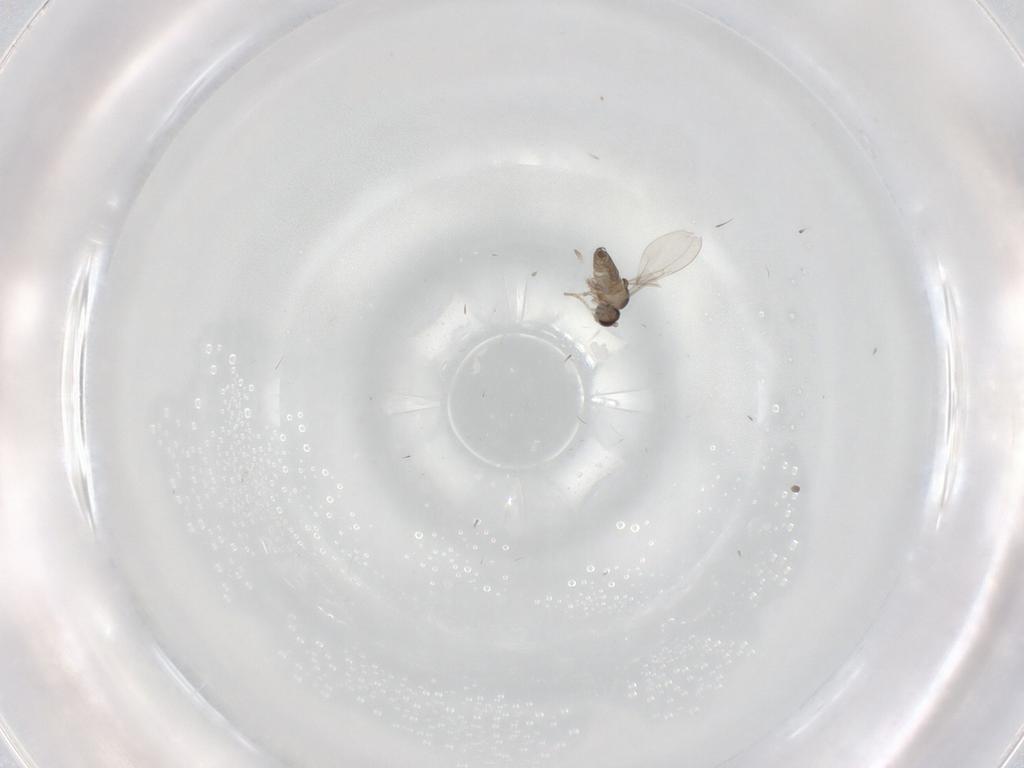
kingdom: Animalia
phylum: Arthropoda
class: Insecta
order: Diptera
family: Cecidomyiidae
